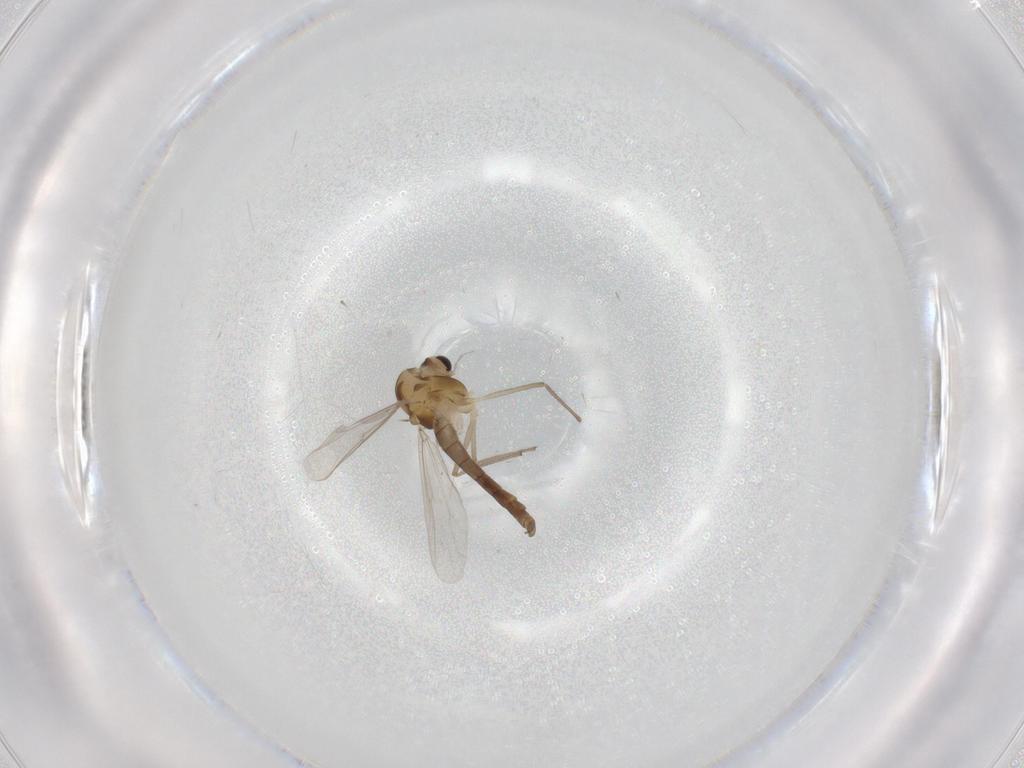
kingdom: Animalia
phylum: Arthropoda
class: Insecta
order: Diptera
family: Chironomidae
